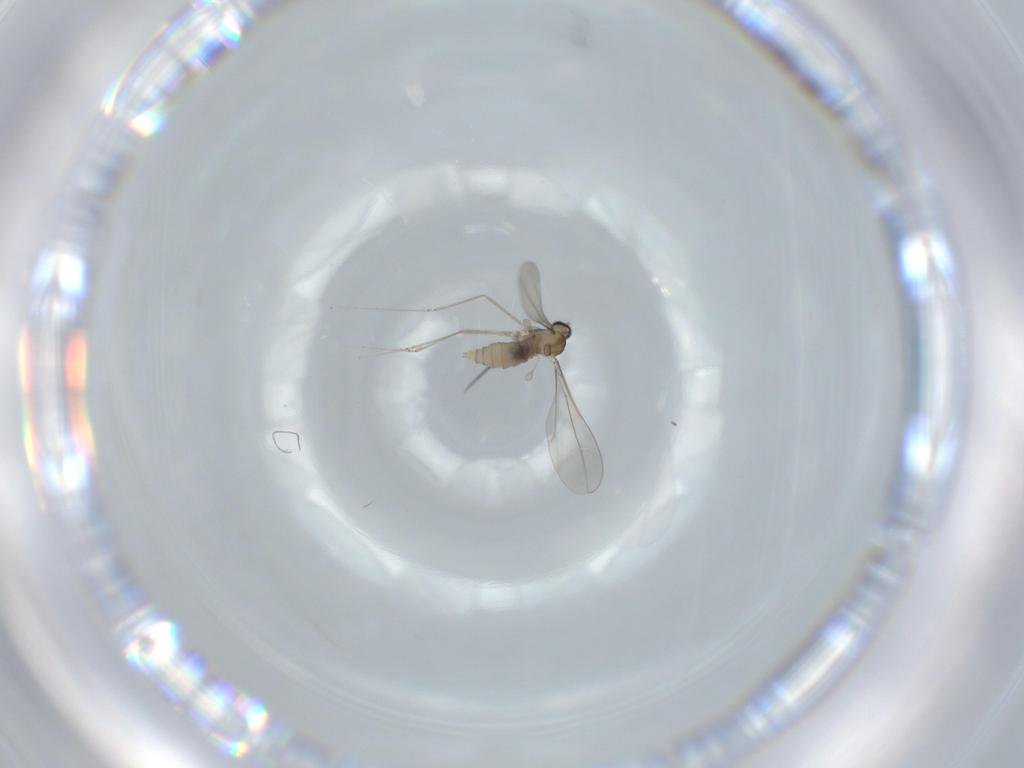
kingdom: Animalia
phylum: Arthropoda
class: Insecta
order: Diptera
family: Cecidomyiidae
